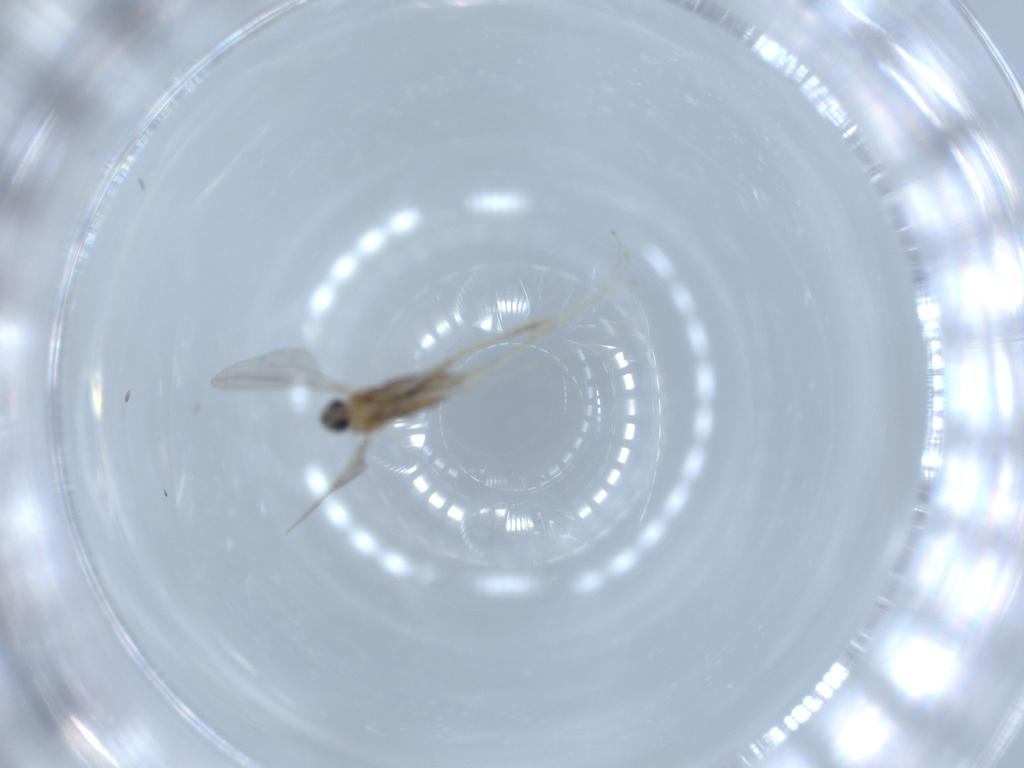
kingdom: Animalia
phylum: Arthropoda
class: Insecta
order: Diptera
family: Cecidomyiidae
